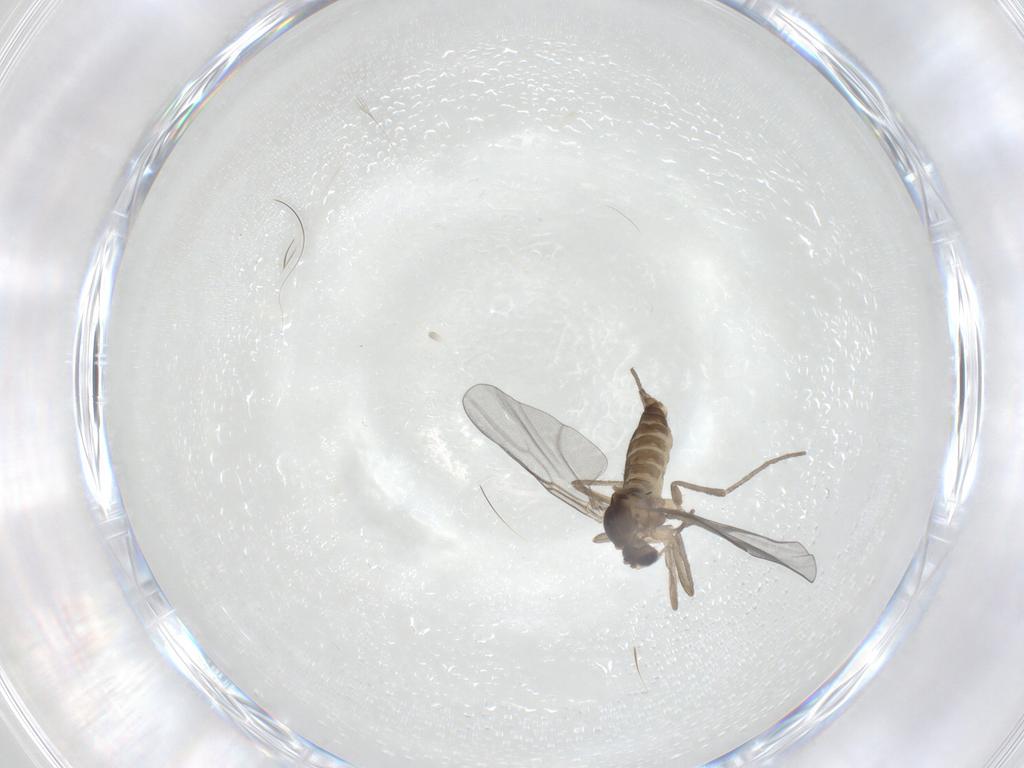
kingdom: Animalia
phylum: Arthropoda
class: Insecta
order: Diptera
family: Cecidomyiidae
